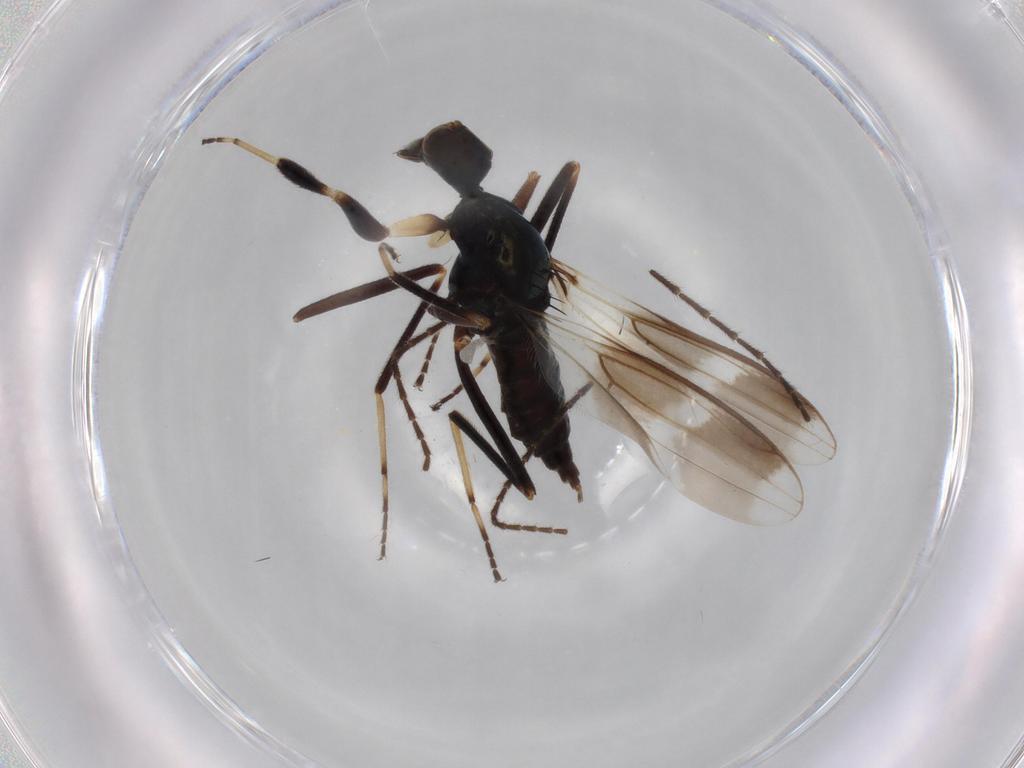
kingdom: Animalia
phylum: Arthropoda
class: Insecta
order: Diptera
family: Hybotidae
